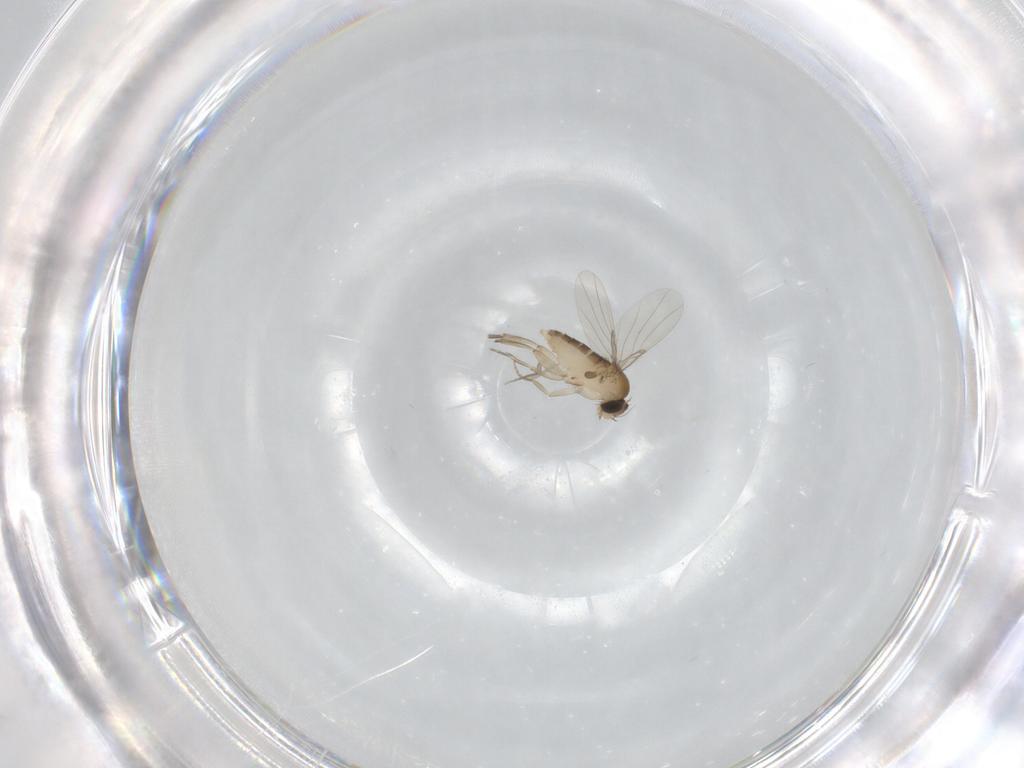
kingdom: Animalia
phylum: Arthropoda
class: Insecta
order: Diptera
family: Phoridae
